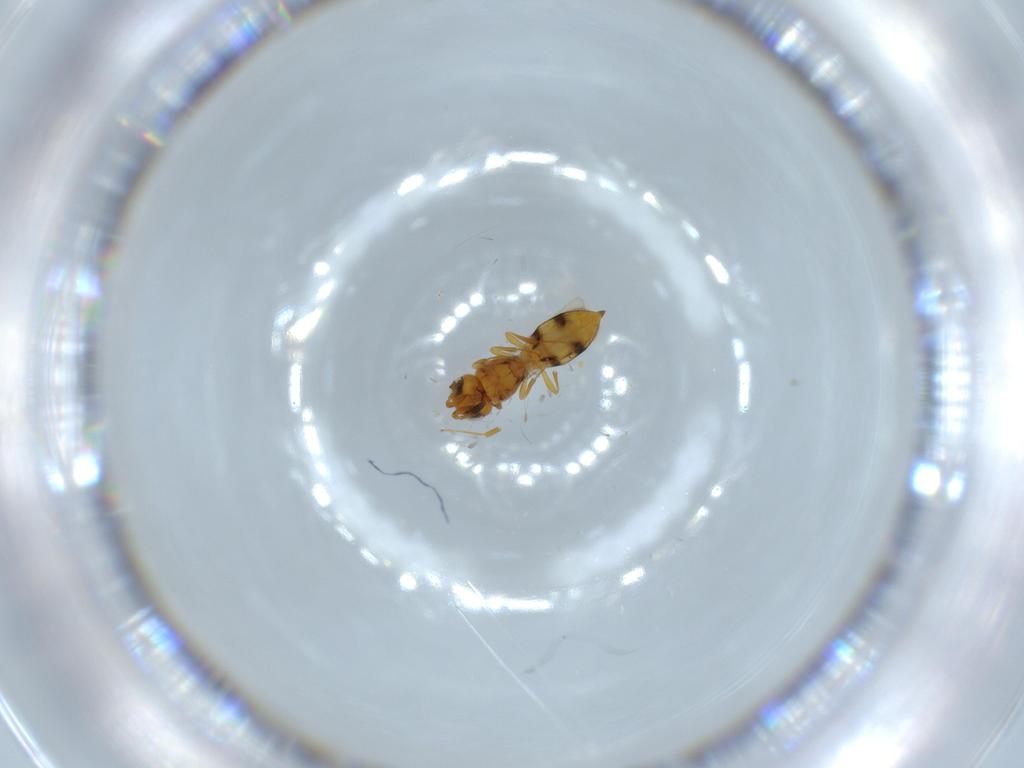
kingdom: Animalia
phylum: Arthropoda
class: Insecta
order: Hymenoptera
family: Scelionidae
